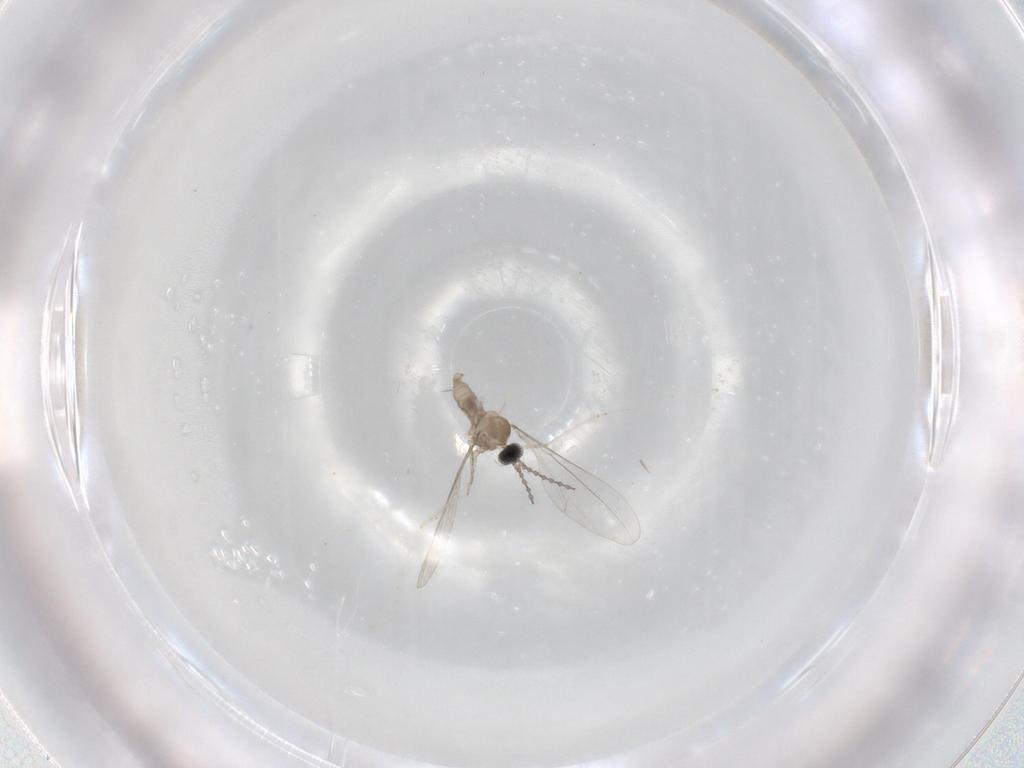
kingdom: Animalia
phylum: Arthropoda
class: Insecta
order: Diptera
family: Cecidomyiidae
